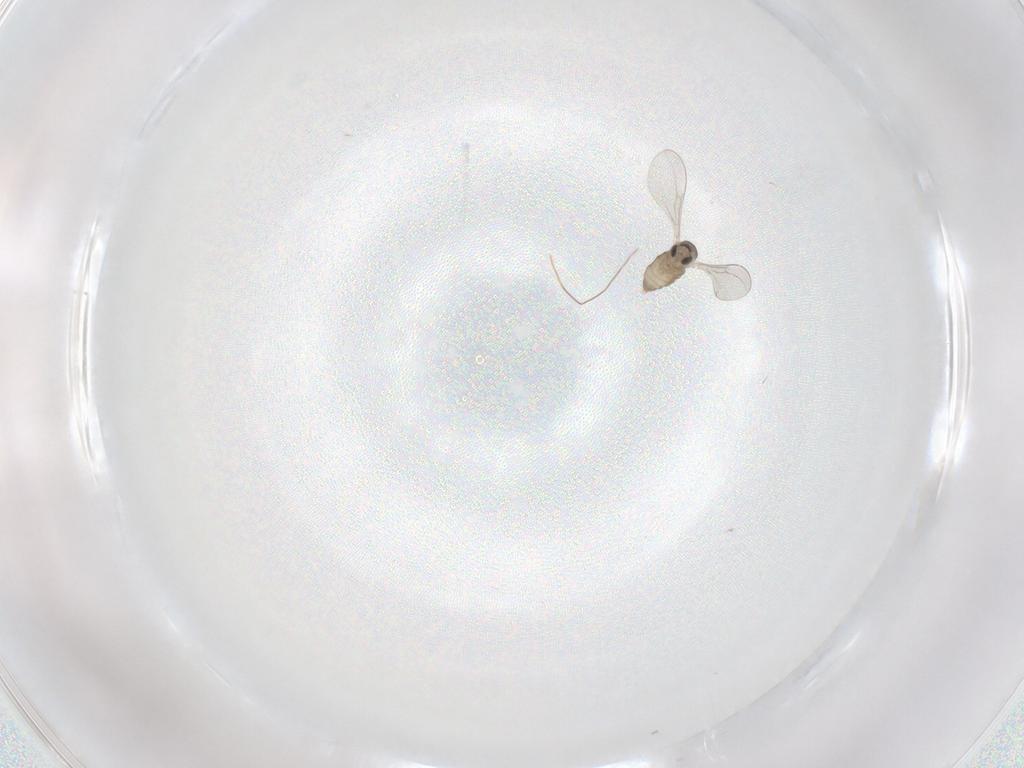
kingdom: Animalia
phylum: Arthropoda
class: Insecta
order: Diptera
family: Cecidomyiidae
